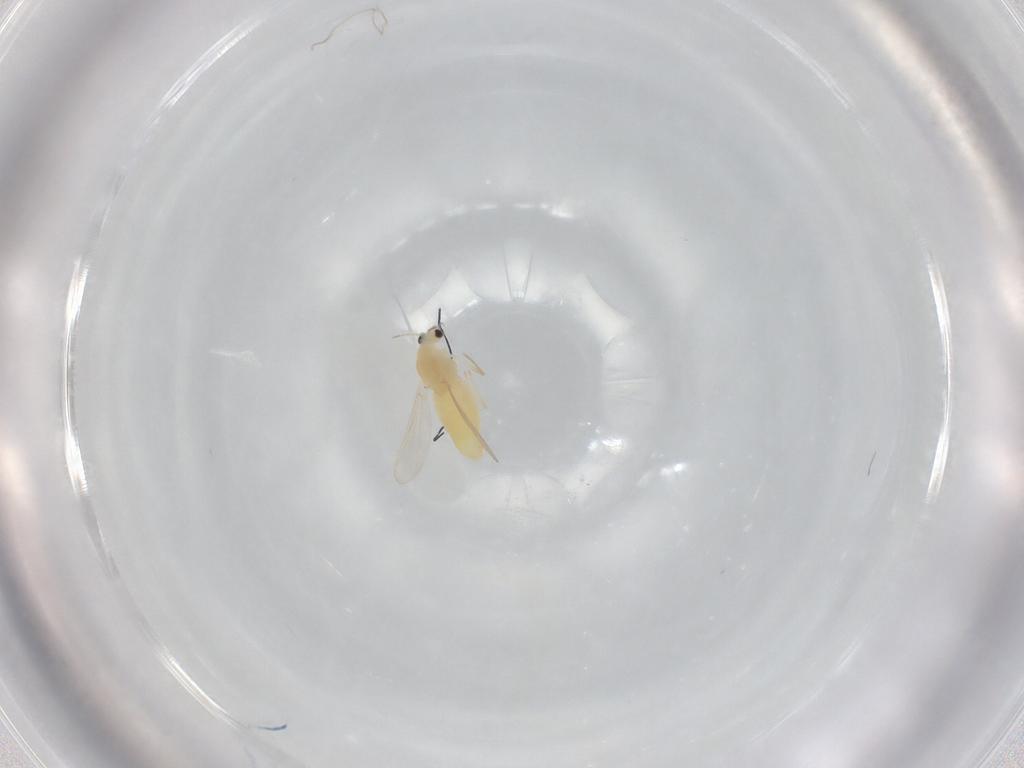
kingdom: Animalia
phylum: Arthropoda
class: Insecta
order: Diptera
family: Chironomidae
